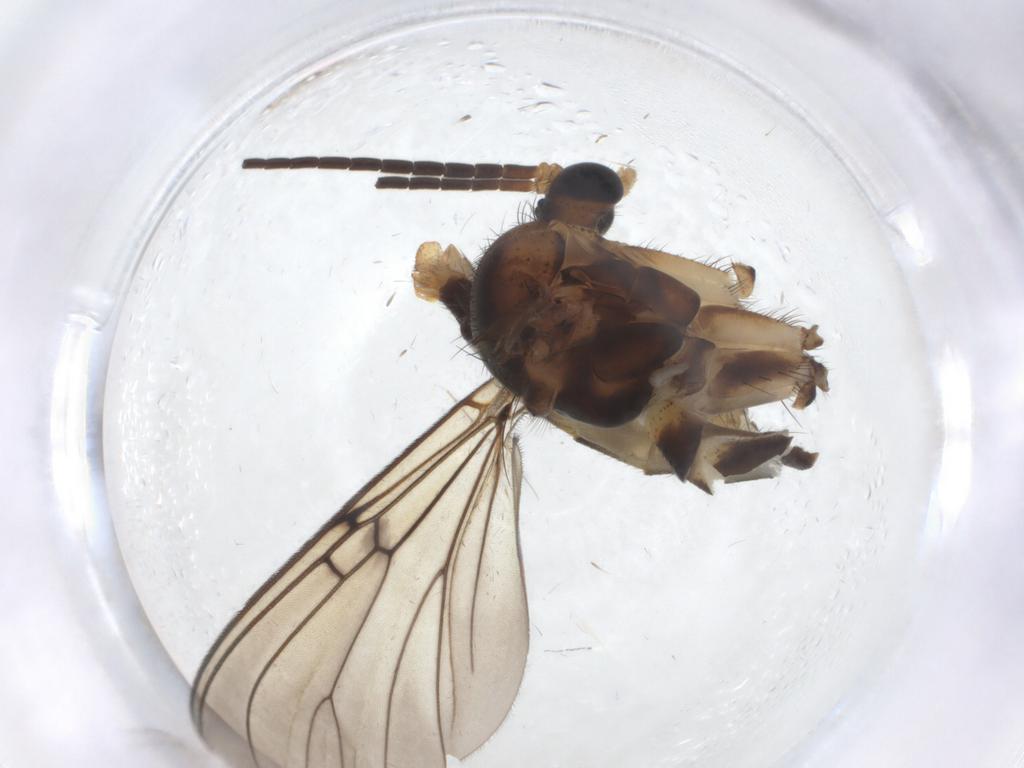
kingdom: Animalia
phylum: Arthropoda
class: Insecta
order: Diptera
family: Mycetophilidae
